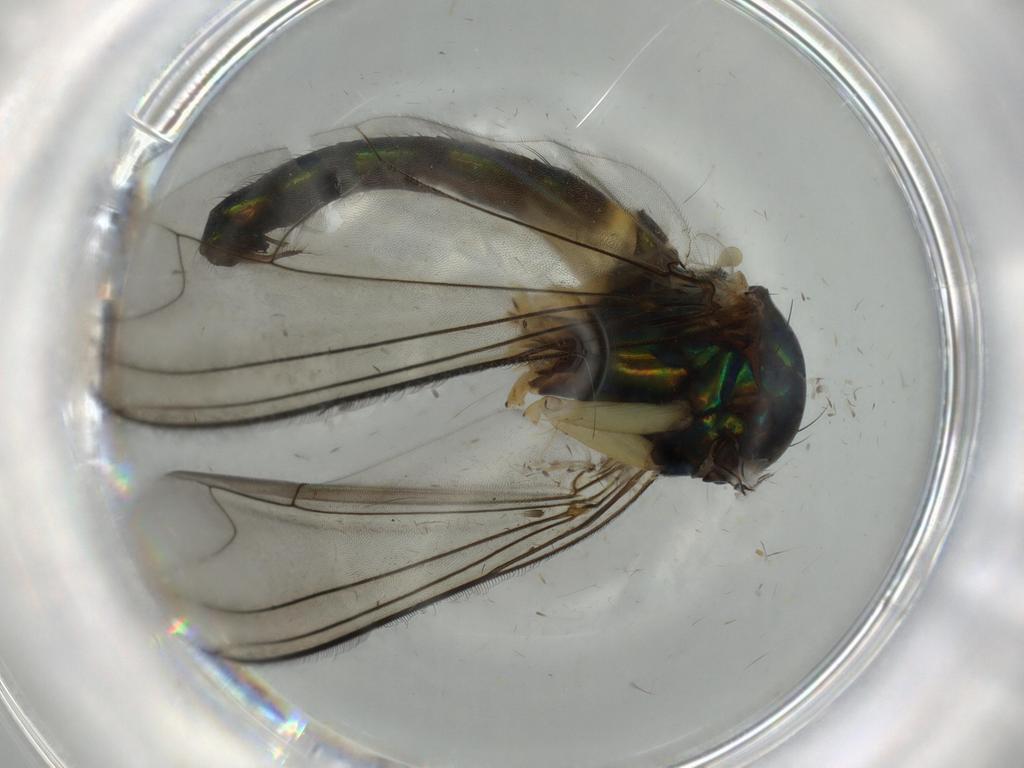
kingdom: Animalia
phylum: Arthropoda
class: Insecta
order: Diptera
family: Dolichopodidae
